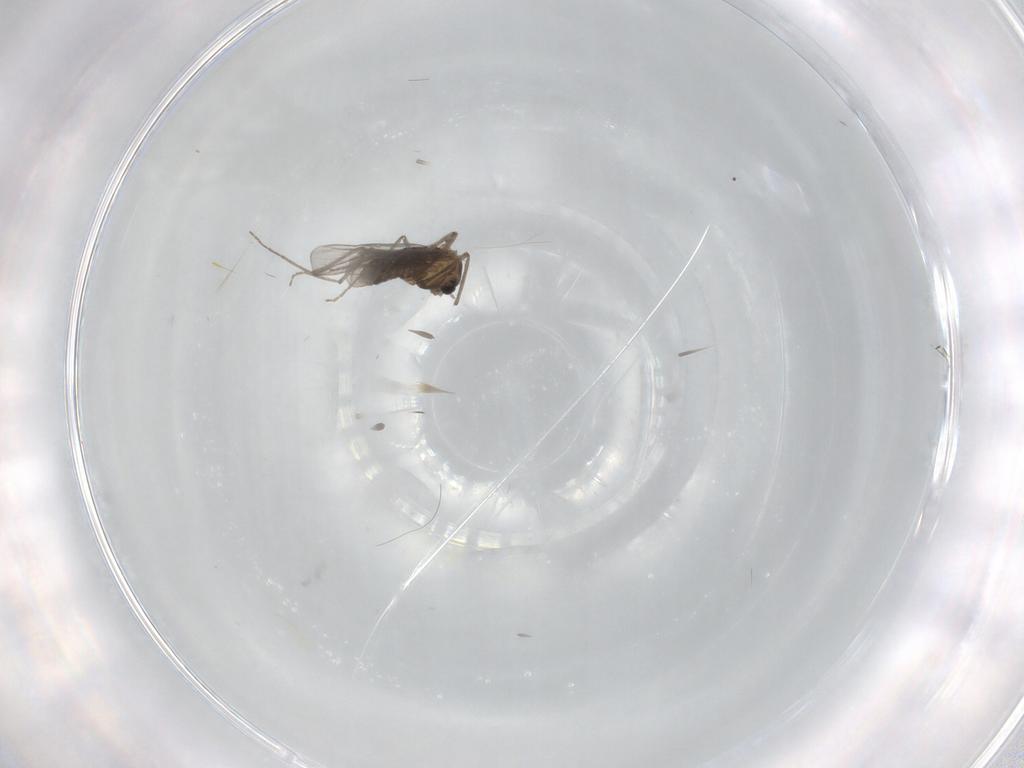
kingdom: Animalia
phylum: Arthropoda
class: Insecta
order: Diptera
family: Chironomidae
